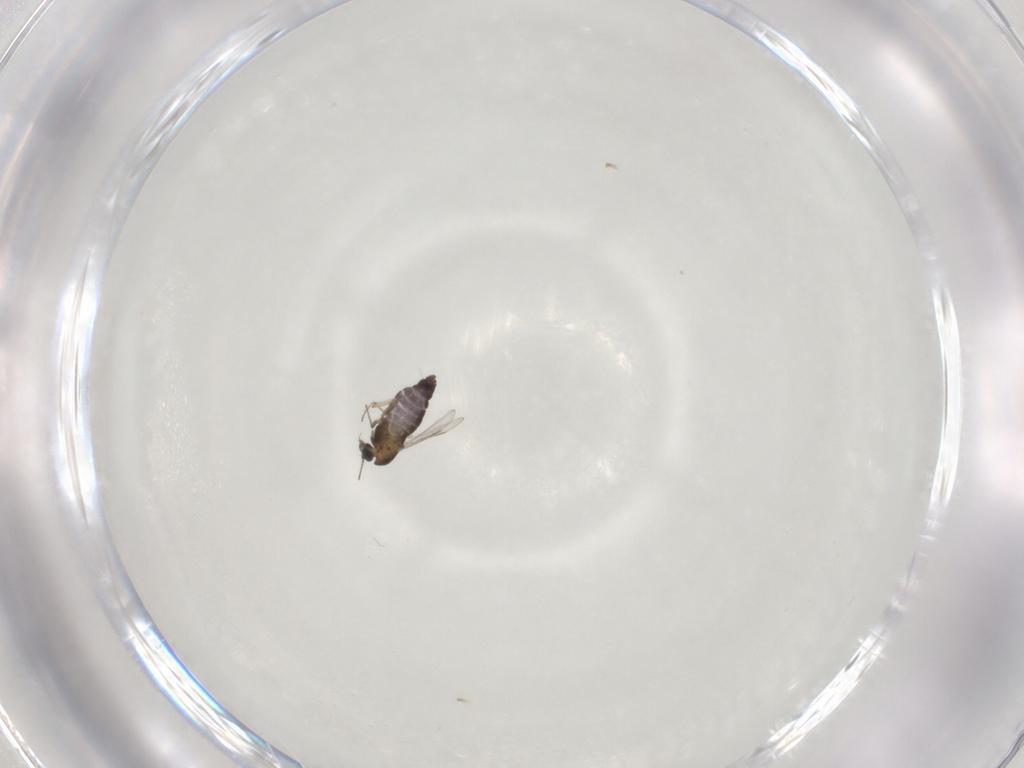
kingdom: Animalia
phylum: Arthropoda
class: Insecta
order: Diptera
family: Chironomidae
